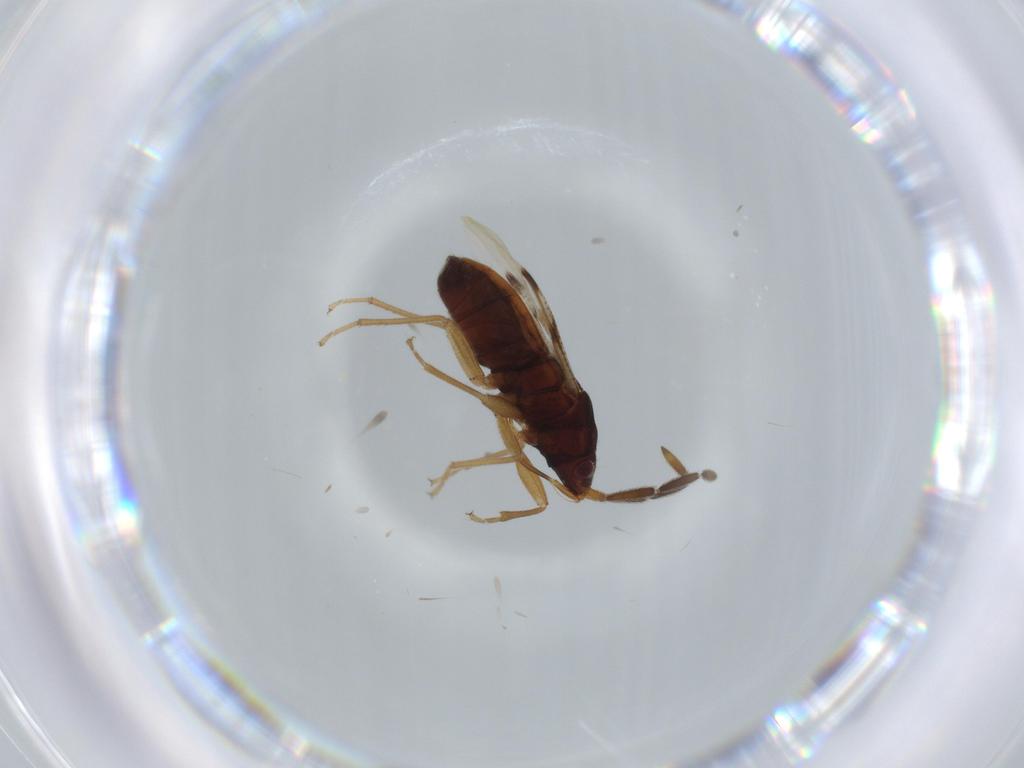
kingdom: Animalia
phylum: Arthropoda
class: Insecta
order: Hemiptera
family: Rhyparochromidae
